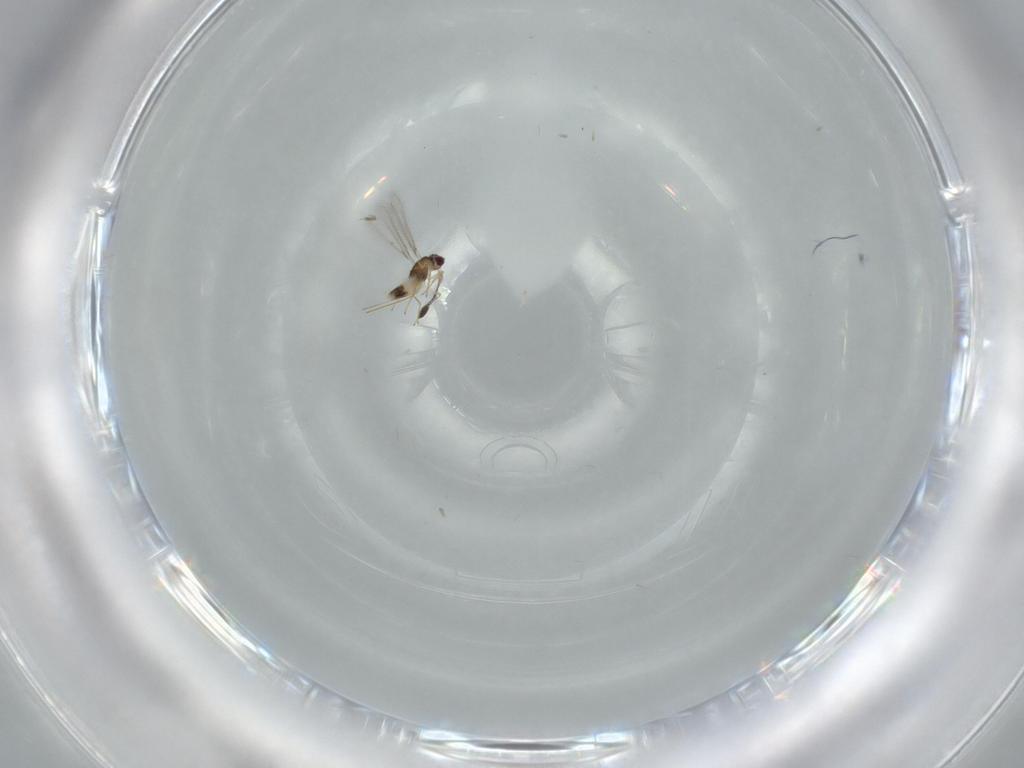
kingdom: Animalia
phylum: Arthropoda
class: Insecta
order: Hymenoptera
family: Mymaridae
